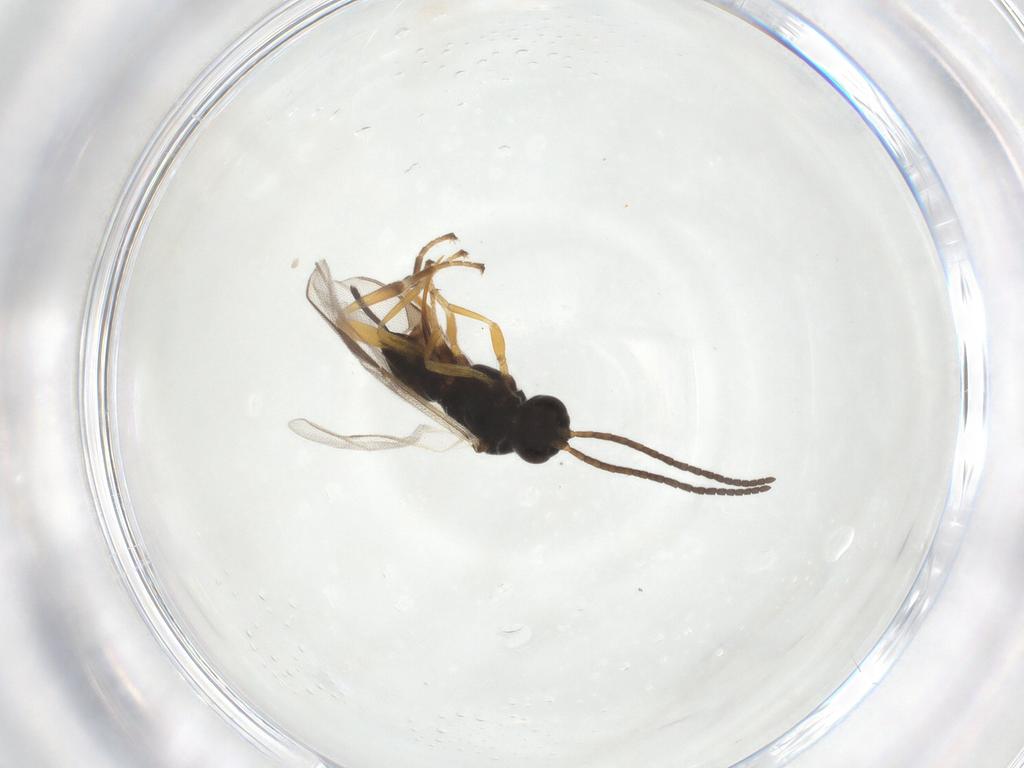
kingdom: Animalia
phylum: Arthropoda
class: Insecta
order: Hymenoptera
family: Braconidae
